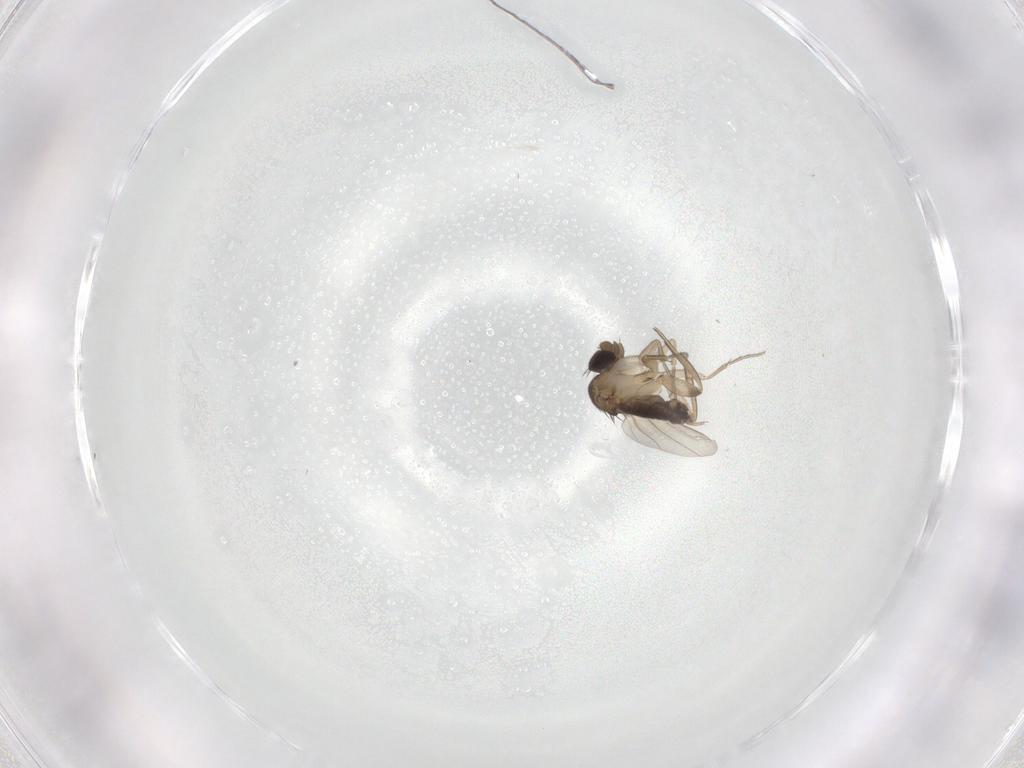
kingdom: Animalia
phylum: Arthropoda
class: Insecta
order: Diptera
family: Phoridae
